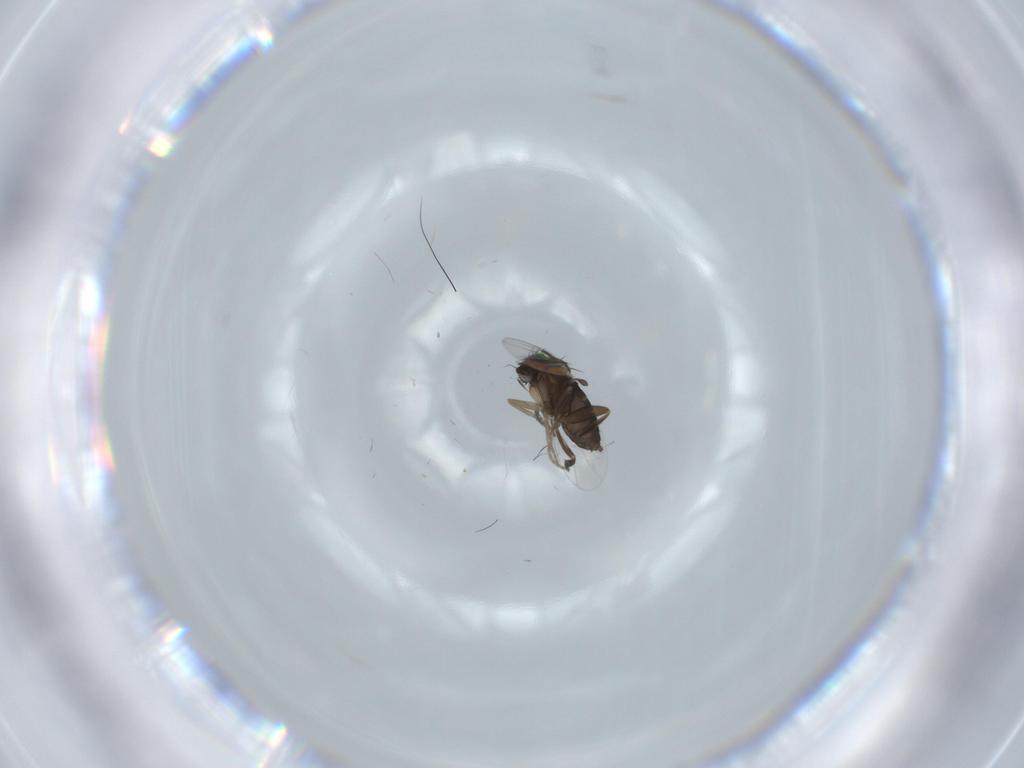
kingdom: Animalia
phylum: Arthropoda
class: Insecta
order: Diptera
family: Phoridae
